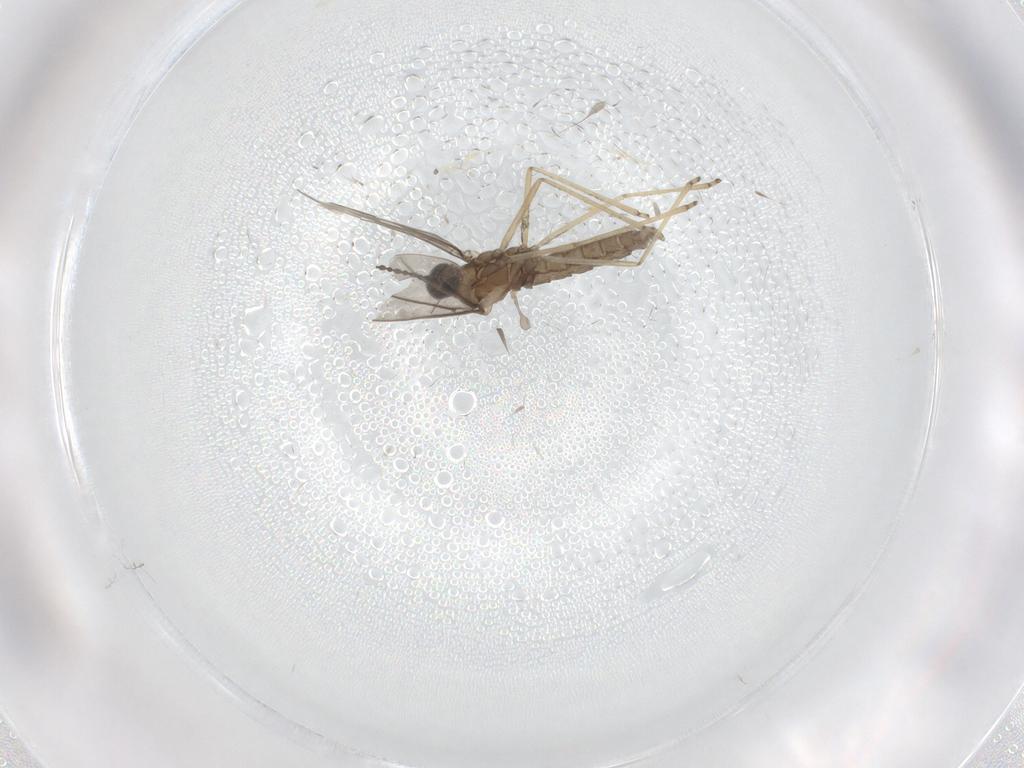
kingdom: Animalia
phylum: Arthropoda
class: Insecta
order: Diptera
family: Cecidomyiidae
